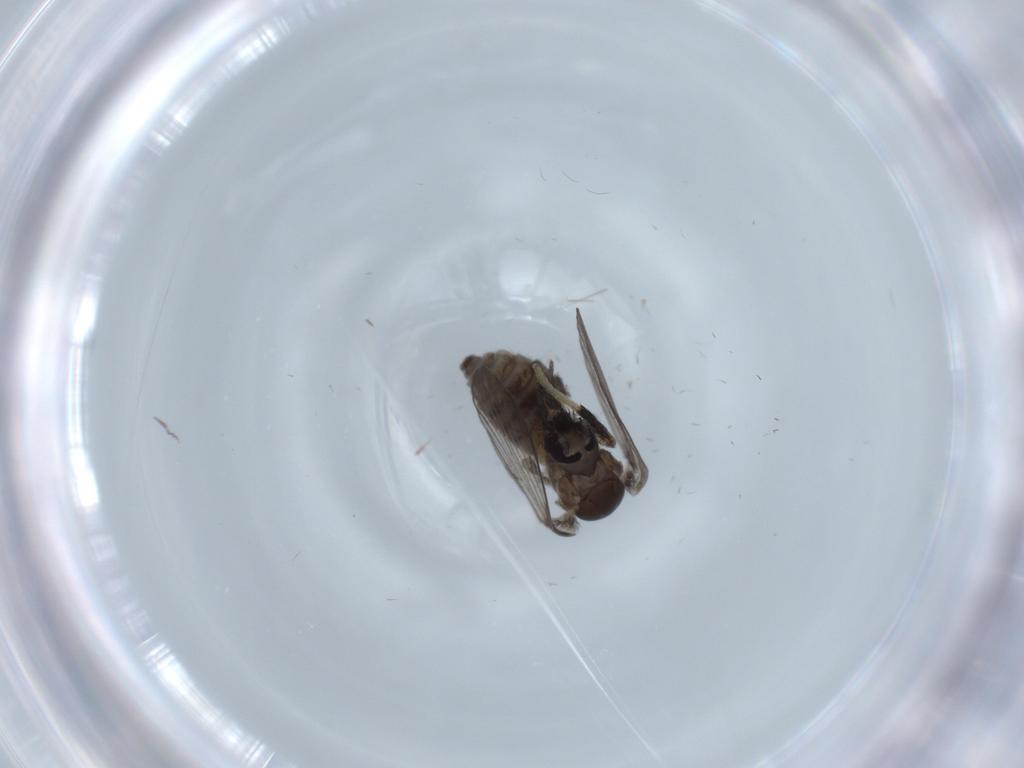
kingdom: Animalia
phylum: Arthropoda
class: Insecta
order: Diptera
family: Psychodidae
